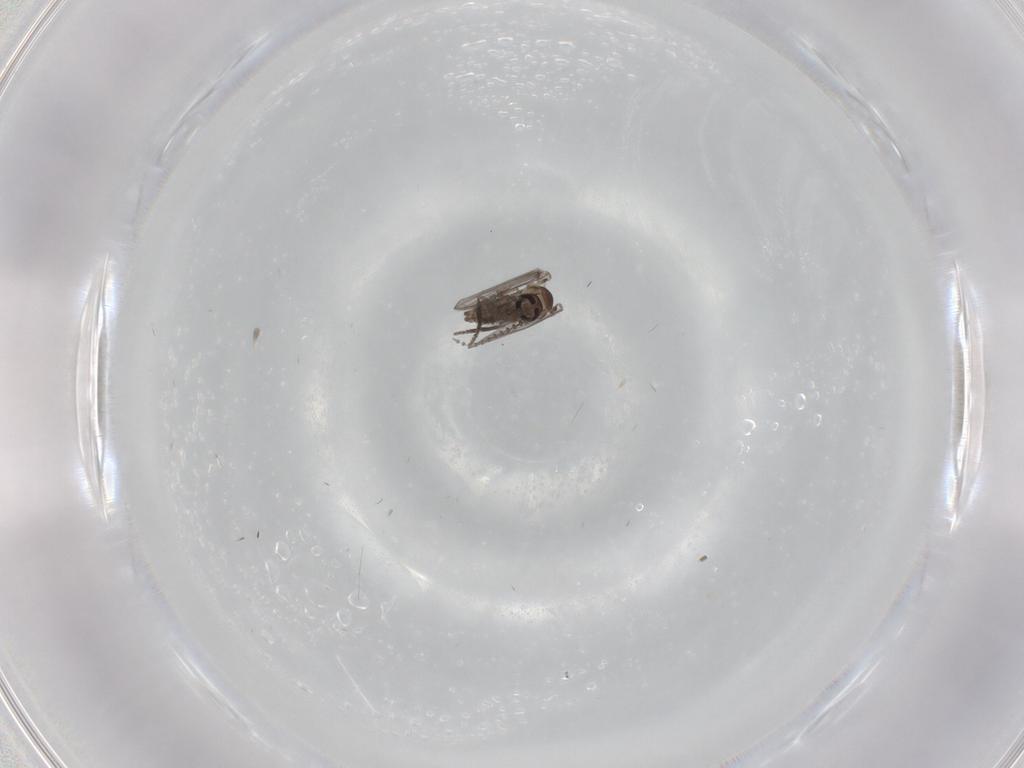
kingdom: Animalia
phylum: Arthropoda
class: Insecta
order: Diptera
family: Psychodidae
